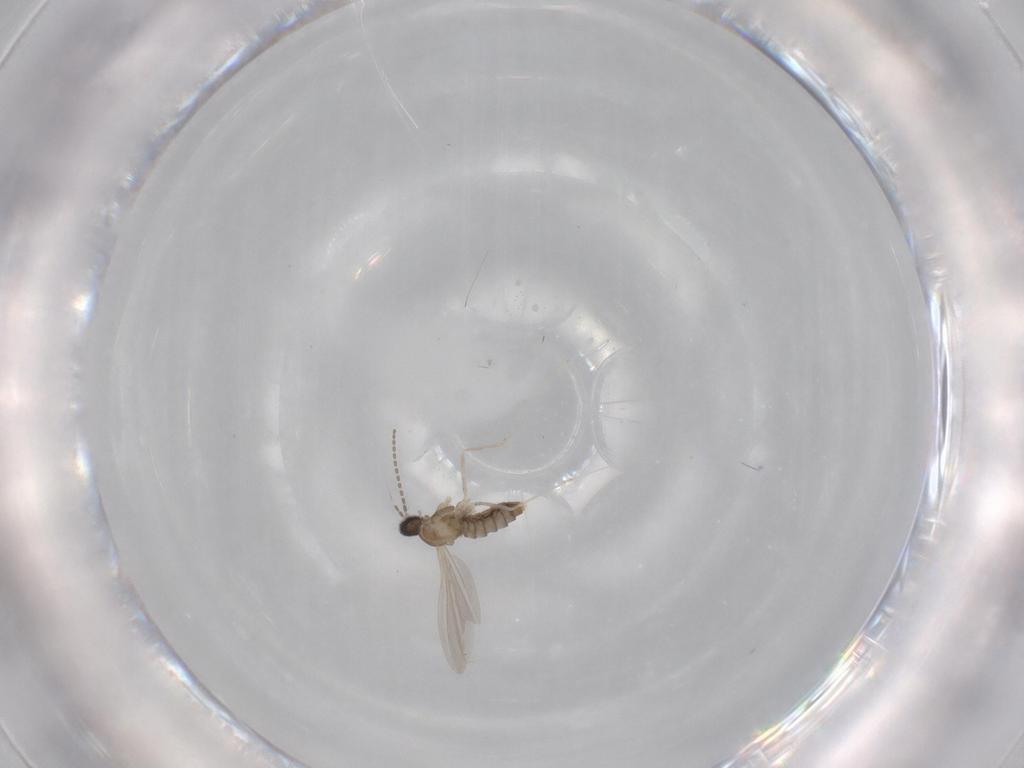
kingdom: Animalia
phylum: Arthropoda
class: Insecta
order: Diptera
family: Cecidomyiidae
